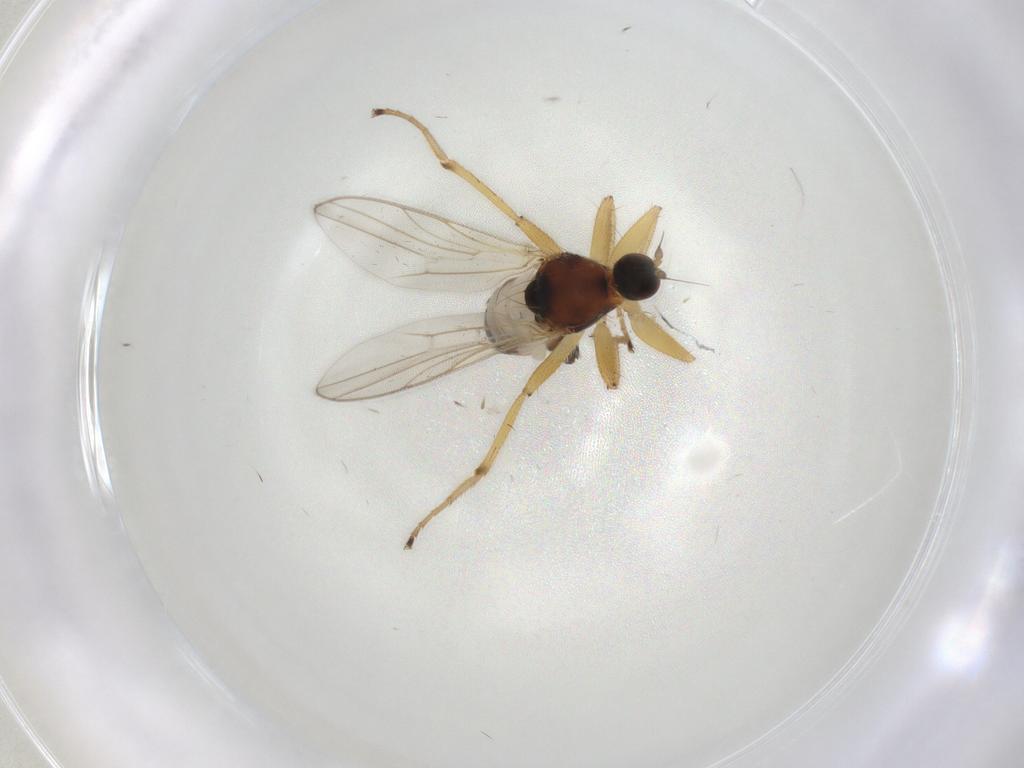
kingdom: Animalia
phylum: Arthropoda
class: Insecta
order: Diptera
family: Hybotidae
